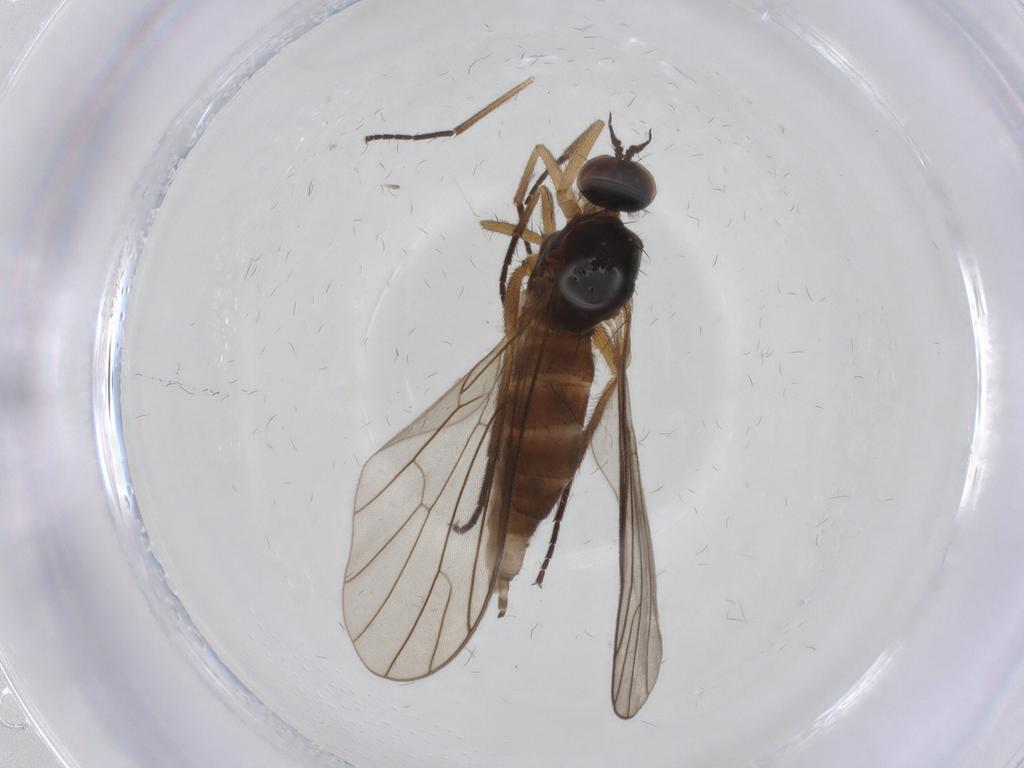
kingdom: Animalia
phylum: Arthropoda
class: Insecta
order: Diptera
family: Empididae
